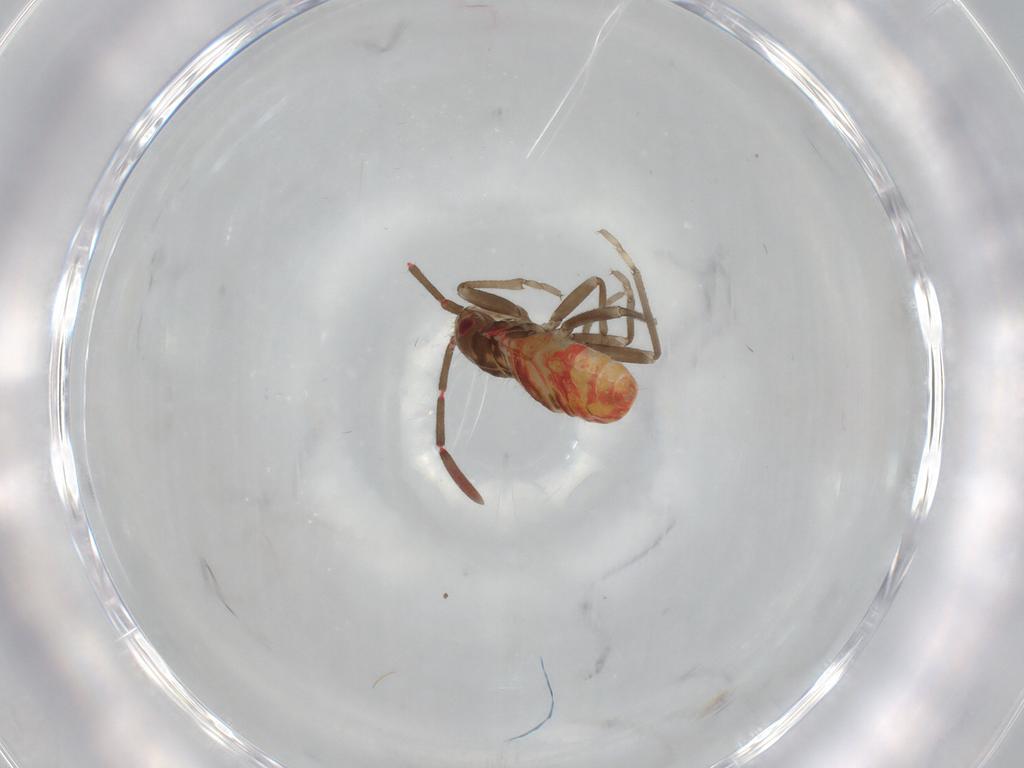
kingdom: Animalia
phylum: Arthropoda
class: Insecta
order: Hemiptera
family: Rhyparochromidae
